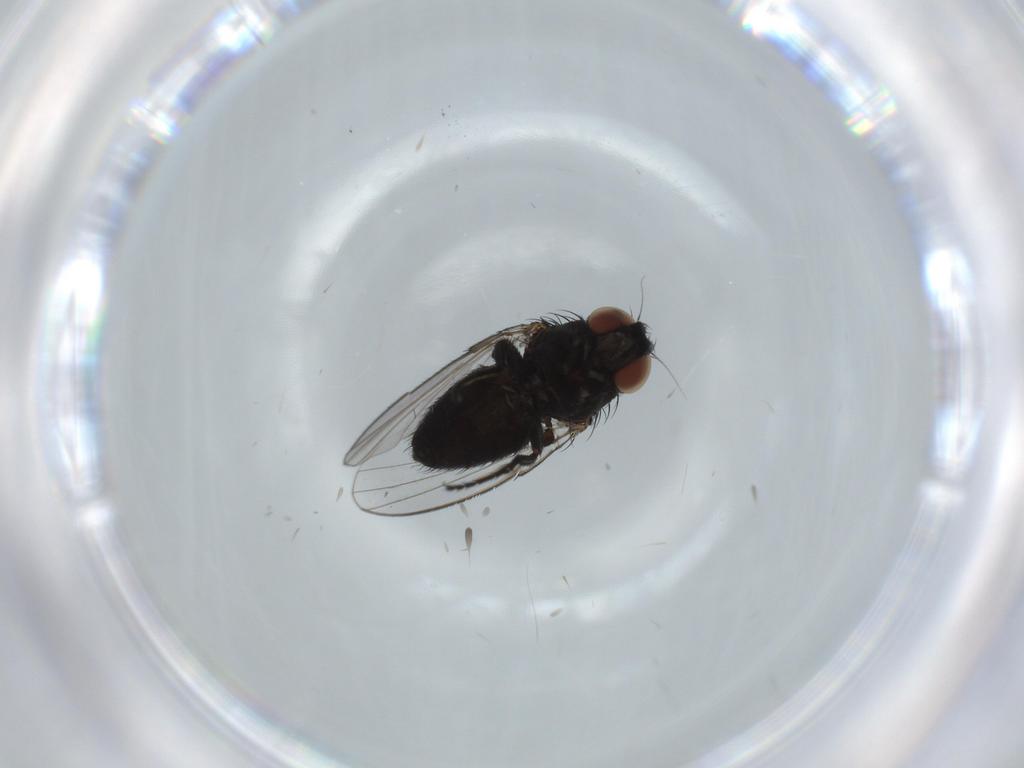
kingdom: Animalia
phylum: Arthropoda
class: Insecta
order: Diptera
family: Milichiidae
